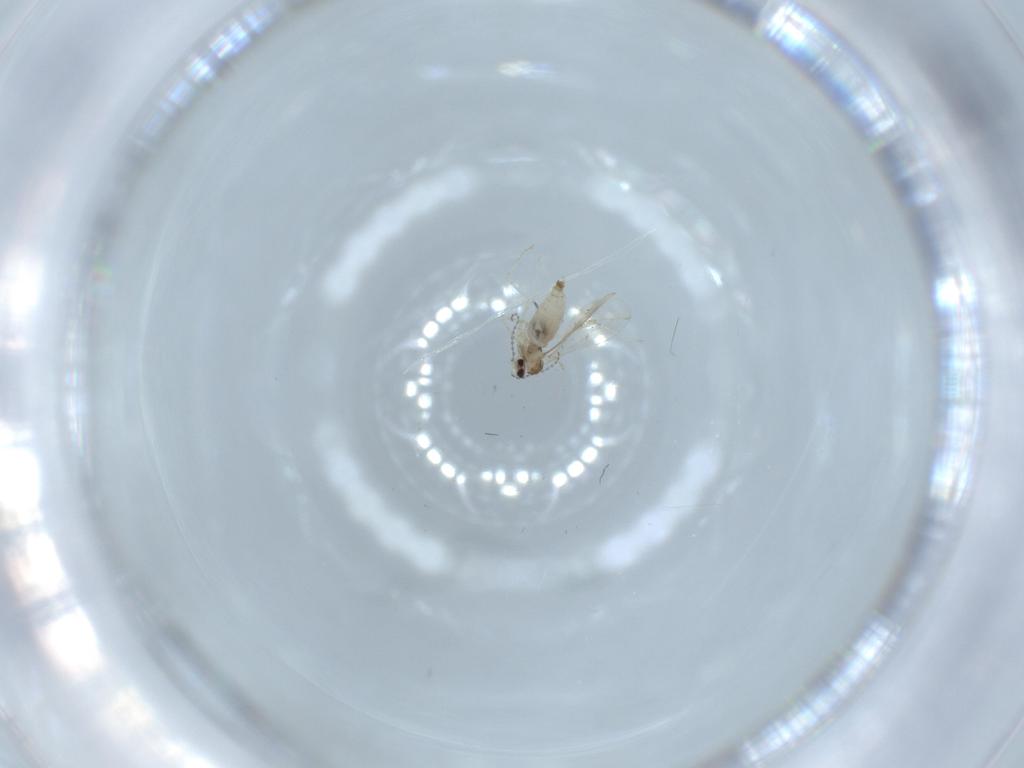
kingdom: Animalia
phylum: Arthropoda
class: Insecta
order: Diptera
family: Cecidomyiidae
